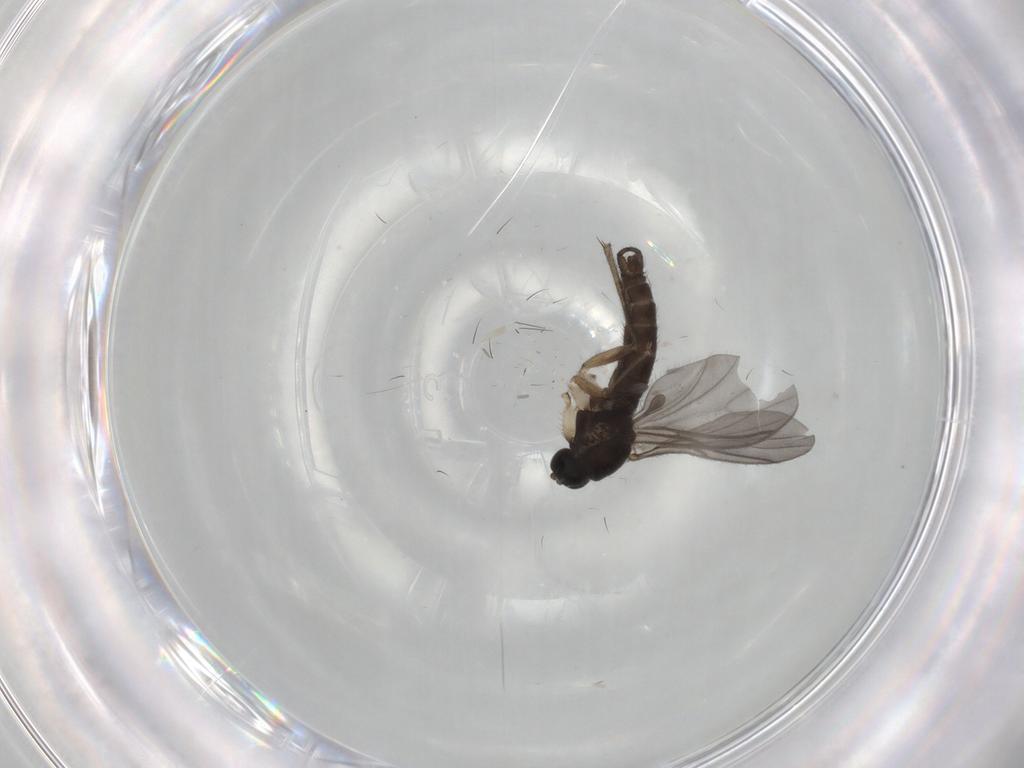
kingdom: Animalia
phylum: Arthropoda
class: Insecta
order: Diptera
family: Sciaridae
